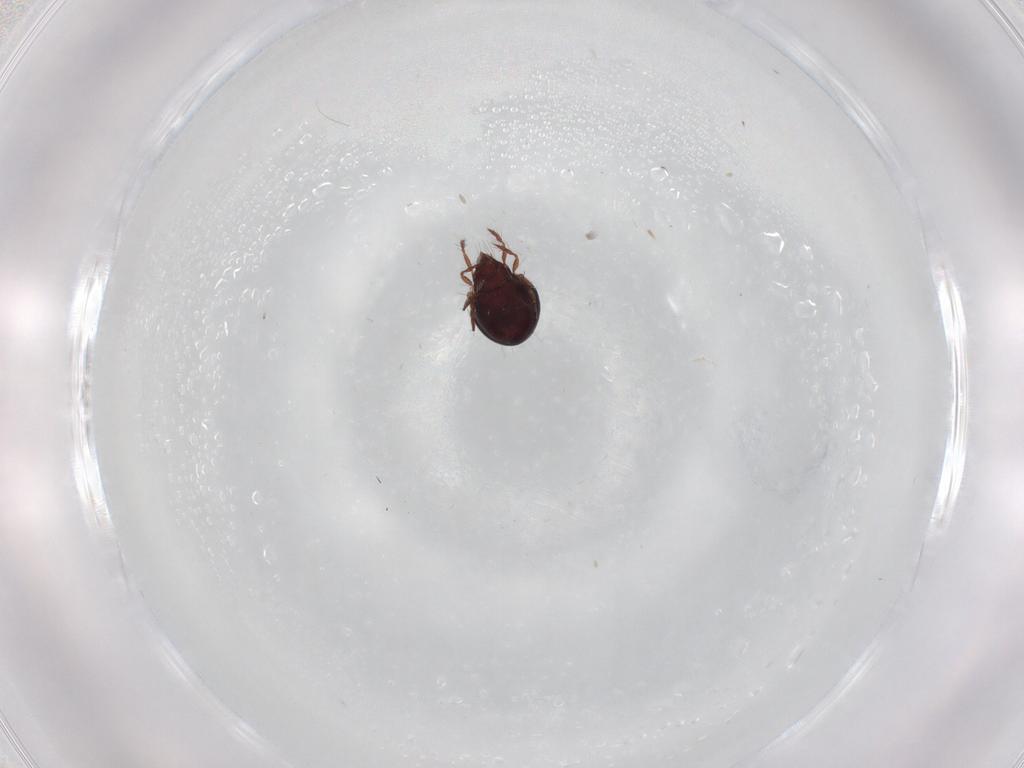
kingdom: Animalia
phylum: Arthropoda
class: Arachnida
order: Sarcoptiformes
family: Ceratoppiidae
